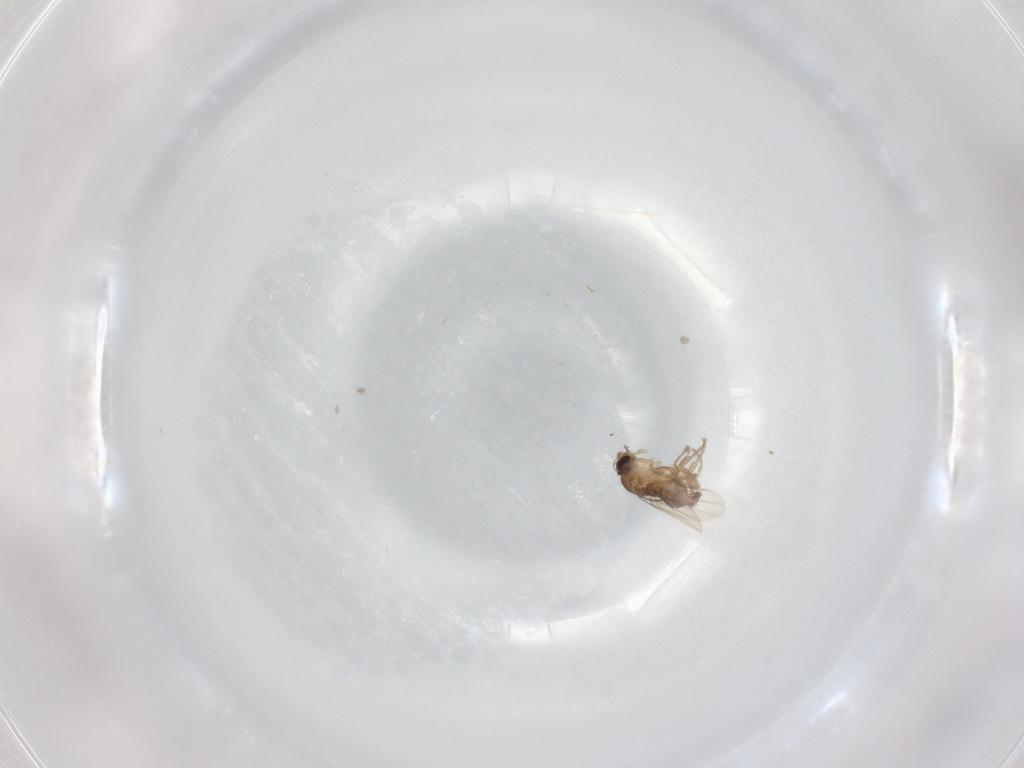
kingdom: Animalia
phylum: Arthropoda
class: Insecta
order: Diptera
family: Phoridae
